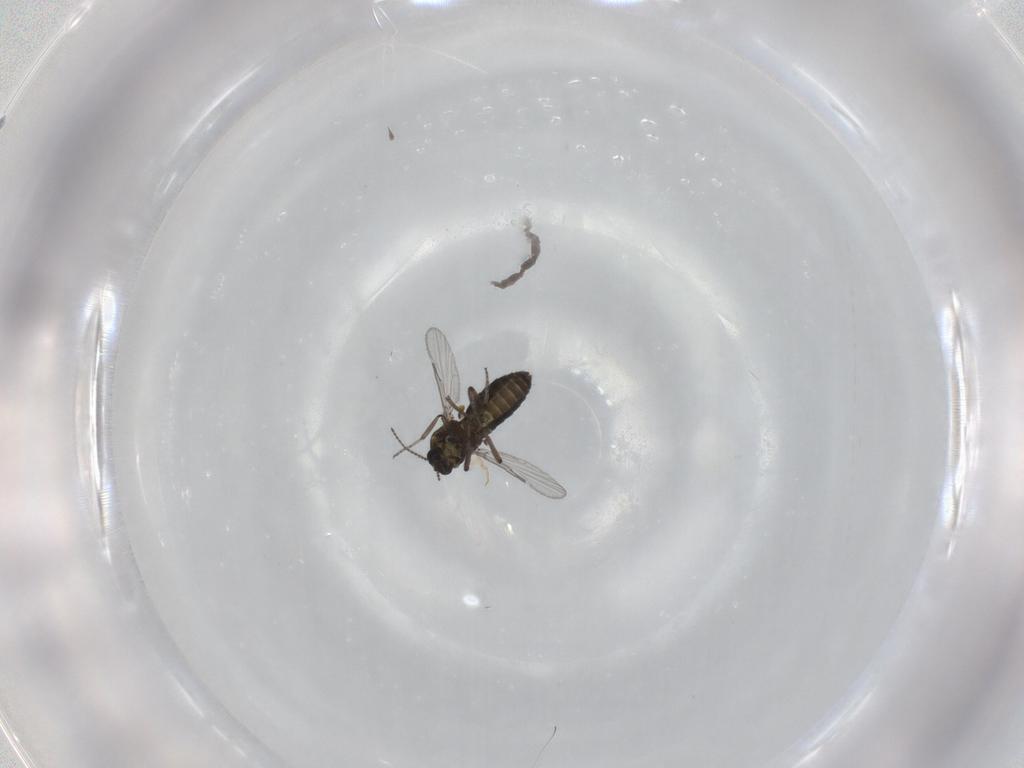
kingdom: Animalia
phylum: Arthropoda
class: Insecta
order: Diptera
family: Ceratopogonidae
